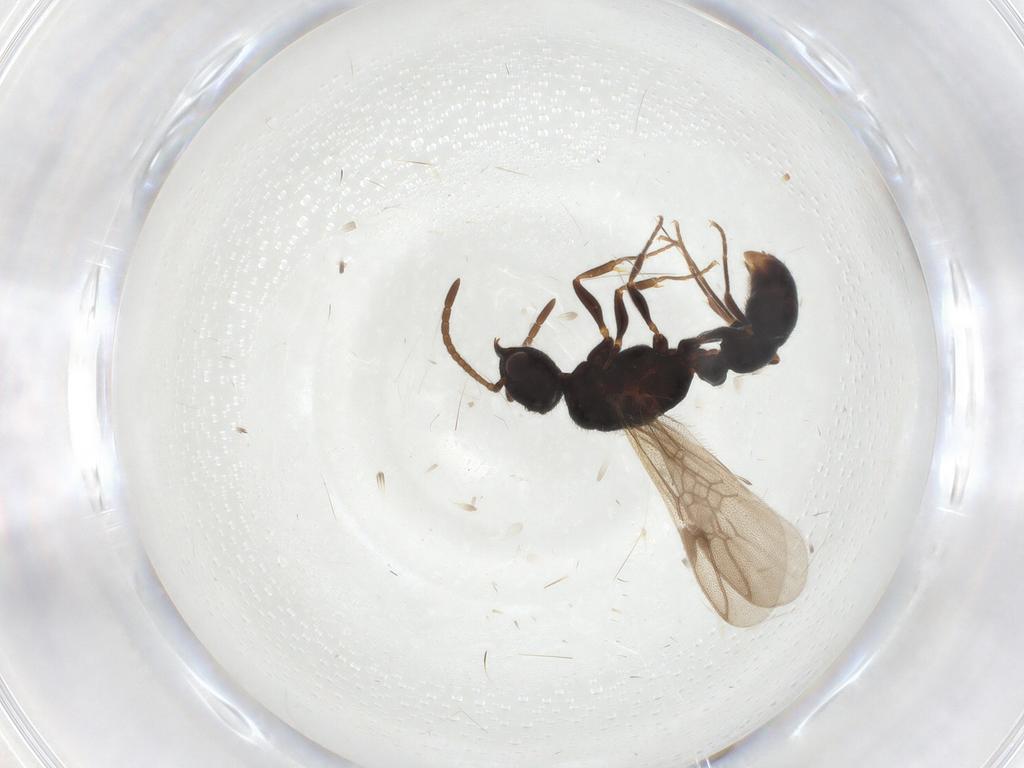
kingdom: Animalia
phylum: Arthropoda
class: Insecta
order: Hymenoptera
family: Formicidae
